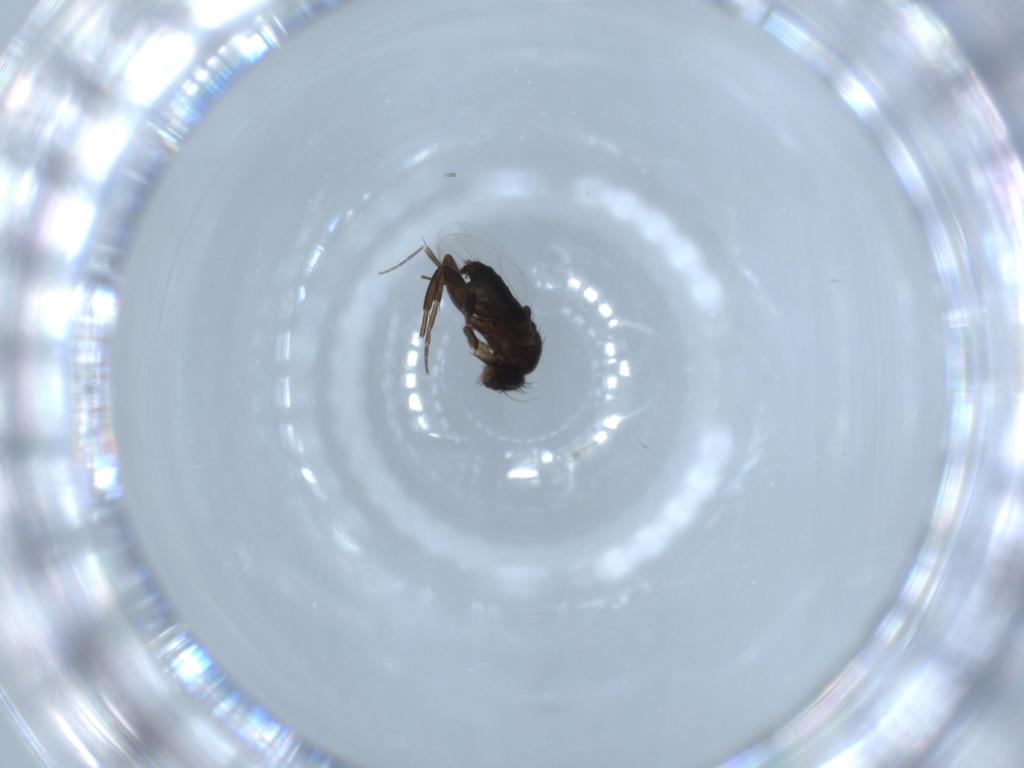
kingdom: Animalia
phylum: Arthropoda
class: Insecta
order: Diptera
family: Phoridae
